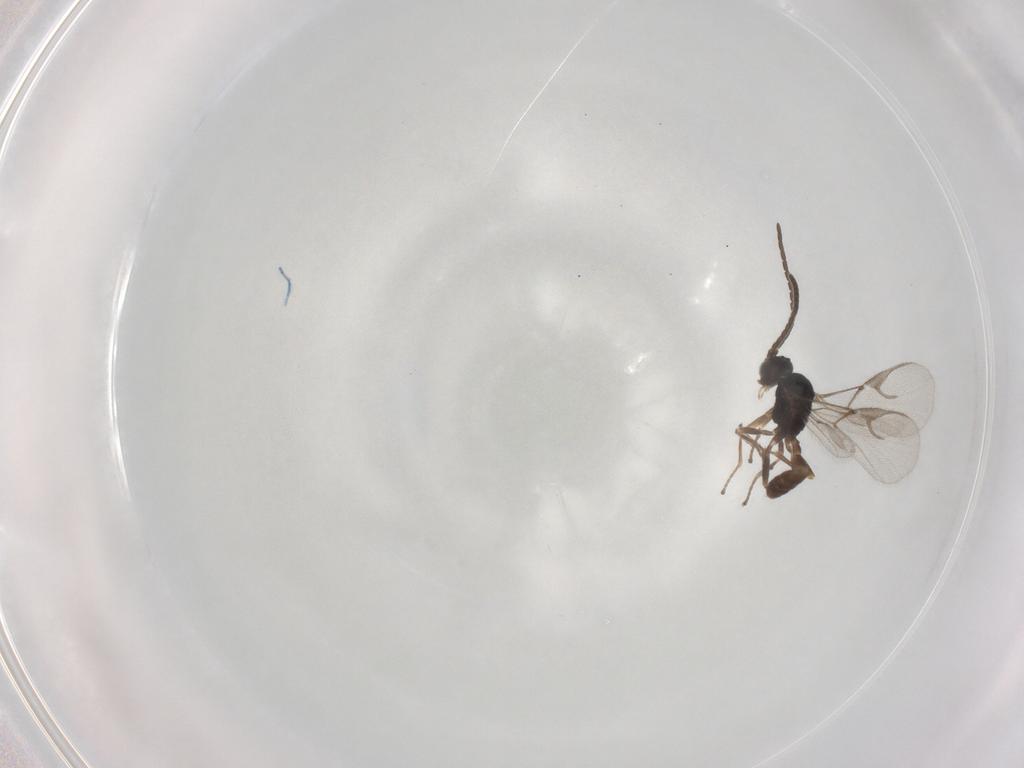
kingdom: Animalia
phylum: Arthropoda
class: Insecta
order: Hymenoptera
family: Braconidae
